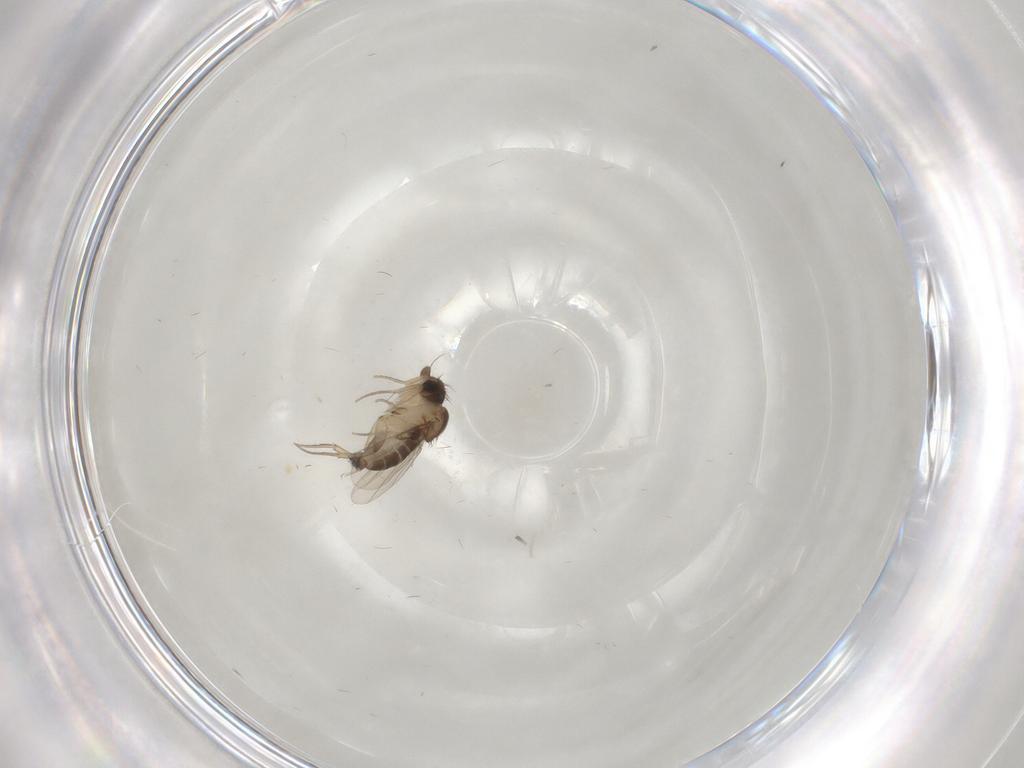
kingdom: Animalia
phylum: Arthropoda
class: Insecta
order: Diptera
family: Phoridae
